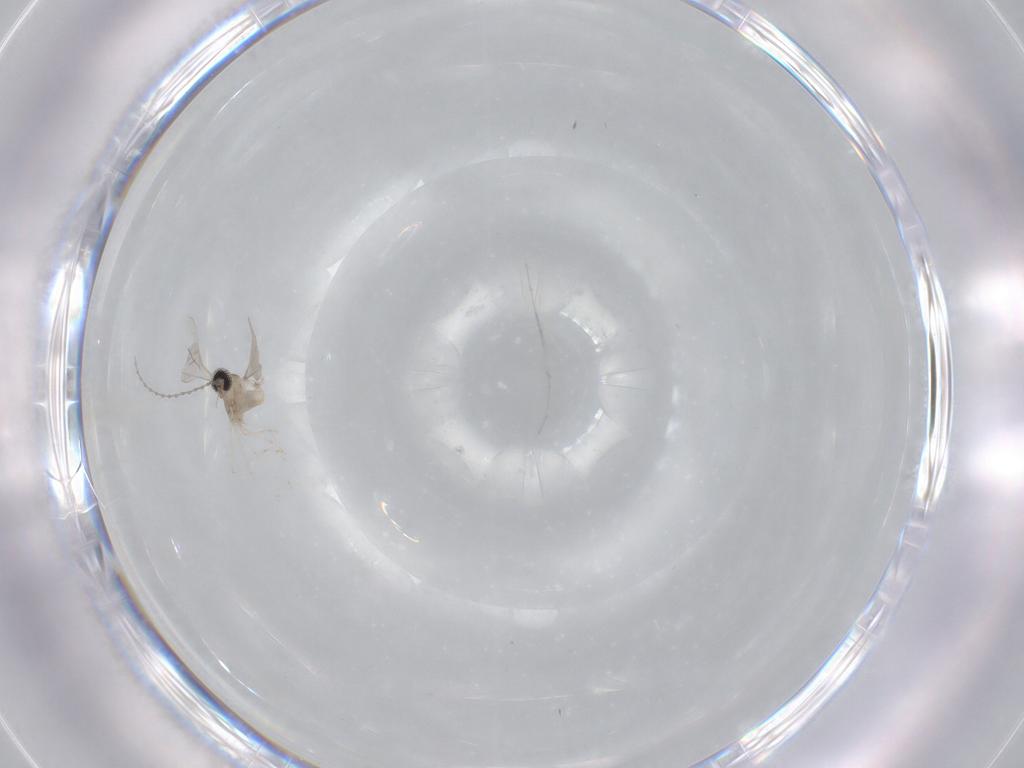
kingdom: Animalia
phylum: Arthropoda
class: Insecta
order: Diptera
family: Cecidomyiidae
